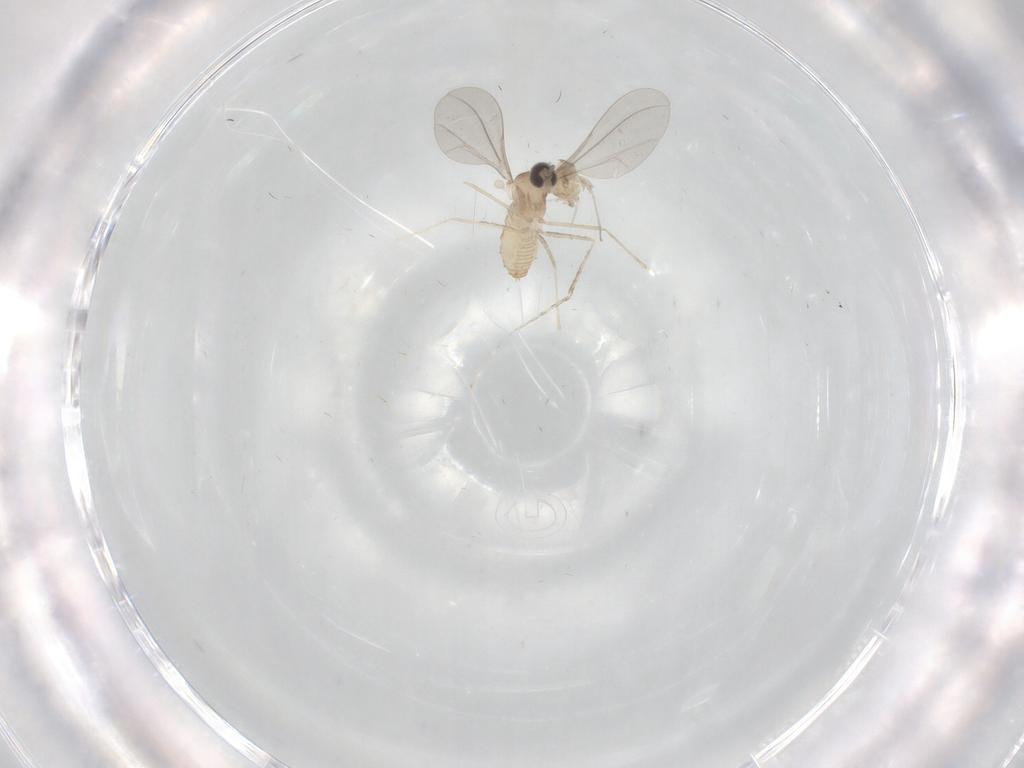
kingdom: Animalia
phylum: Arthropoda
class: Insecta
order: Diptera
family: Cecidomyiidae
